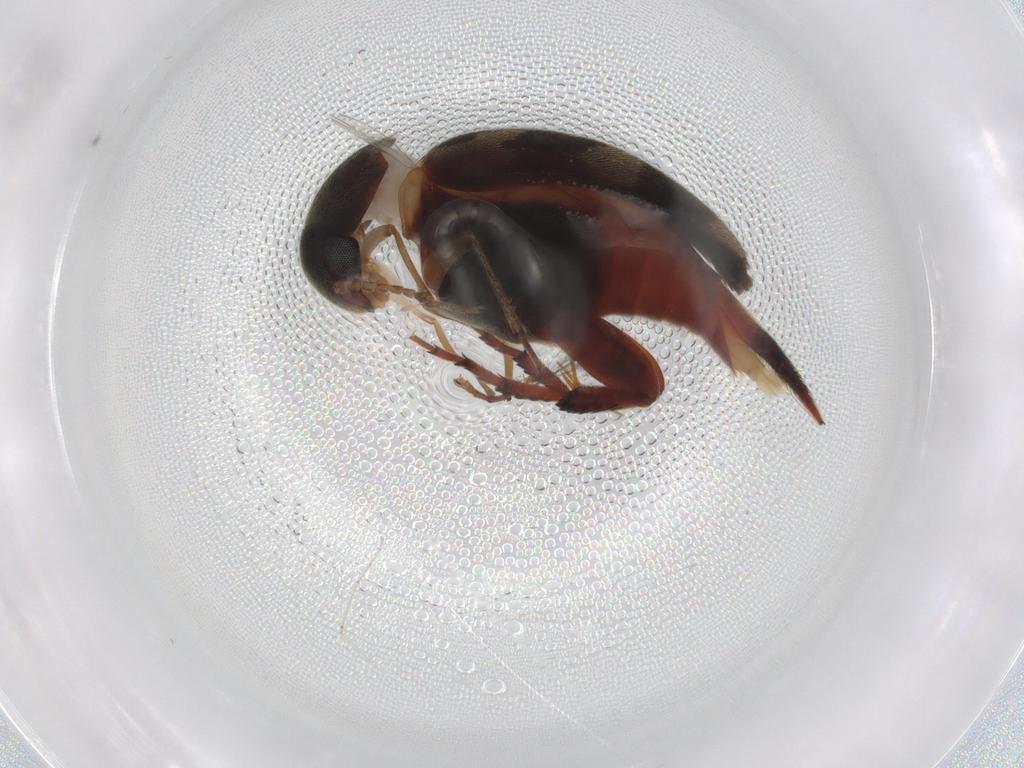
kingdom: Animalia
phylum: Arthropoda
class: Insecta
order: Coleoptera
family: Mordellidae
